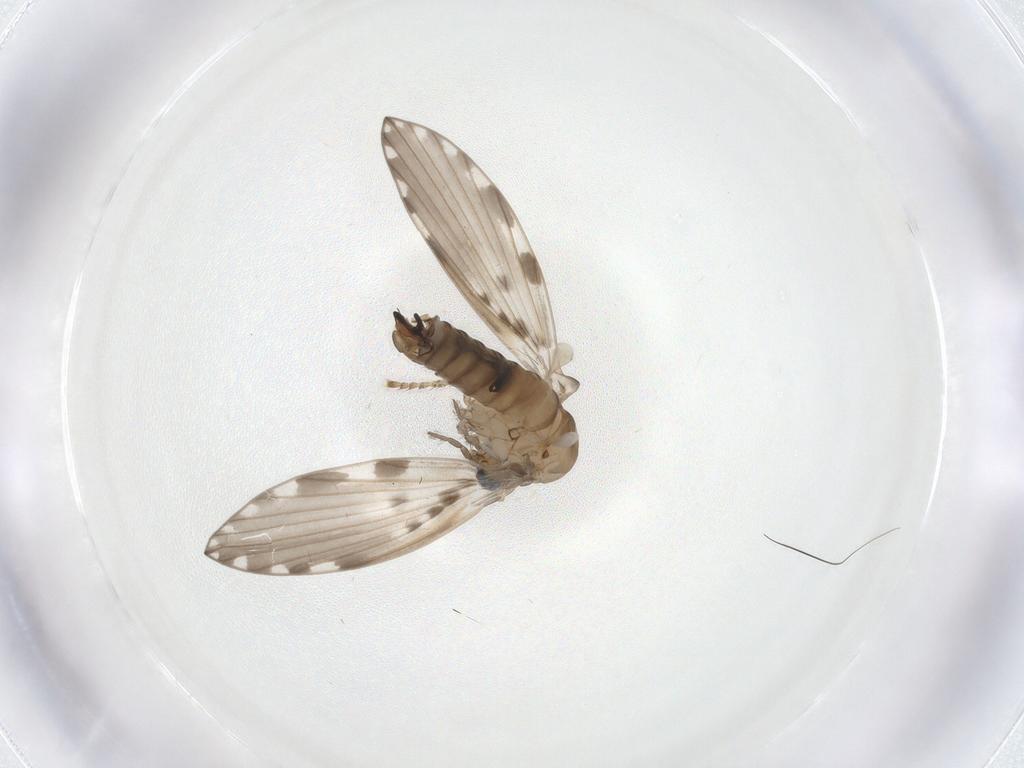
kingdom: Animalia
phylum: Arthropoda
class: Insecta
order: Diptera
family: Psychodidae
